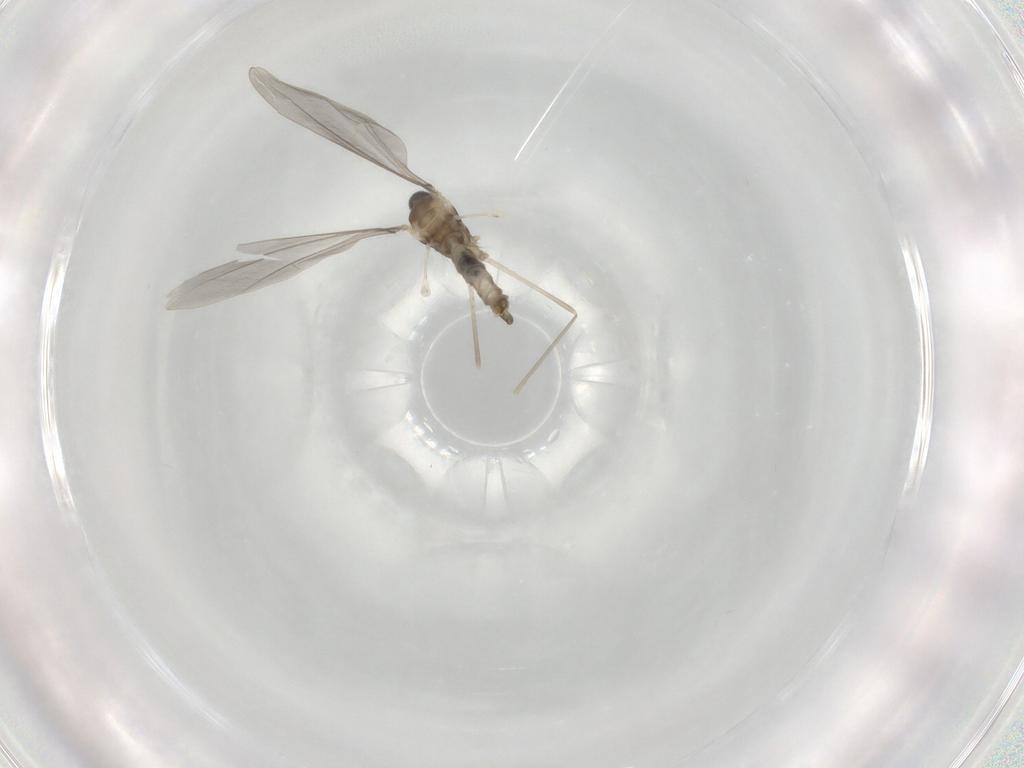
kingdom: Animalia
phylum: Arthropoda
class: Insecta
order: Diptera
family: Cecidomyiidae
